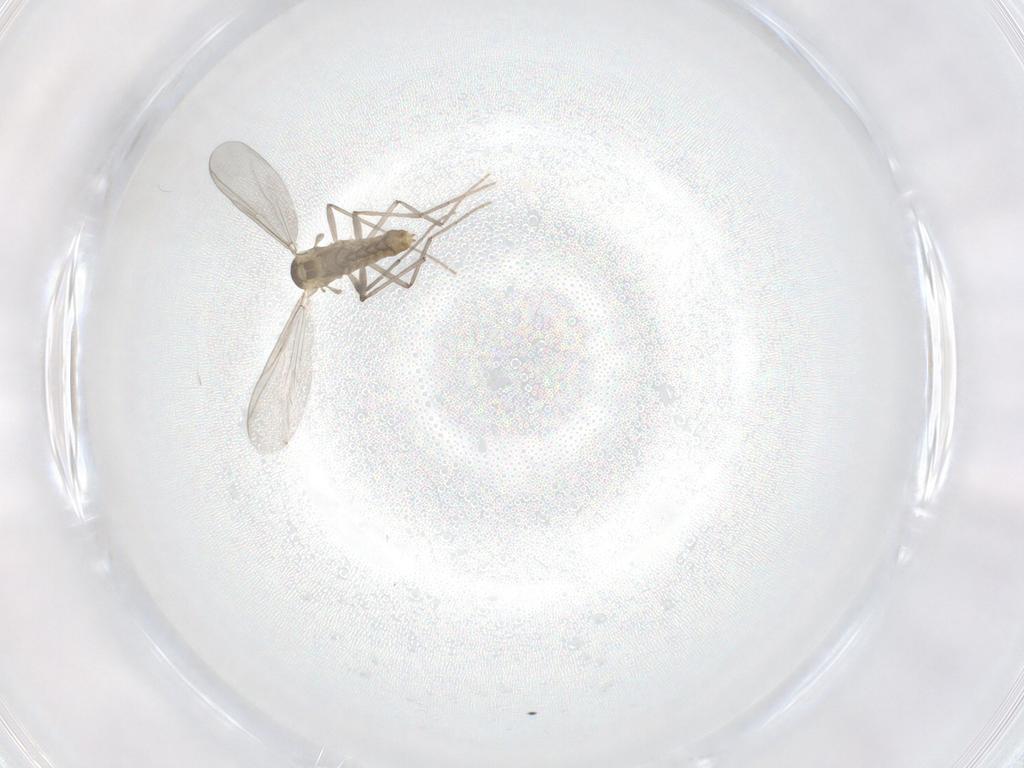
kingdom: Animalia
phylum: Arthropoda
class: Insecta
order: Diptera
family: Chironomidae
